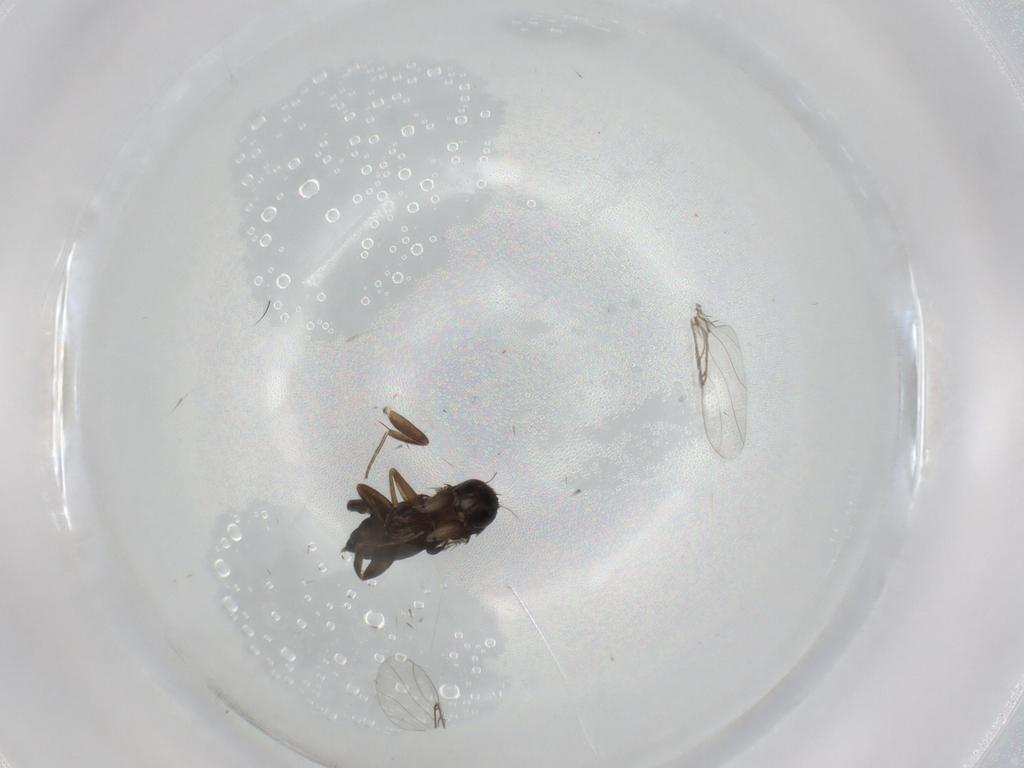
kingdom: Animalia
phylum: Arthropoda
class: Insecta
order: Diptera
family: Phoridae
